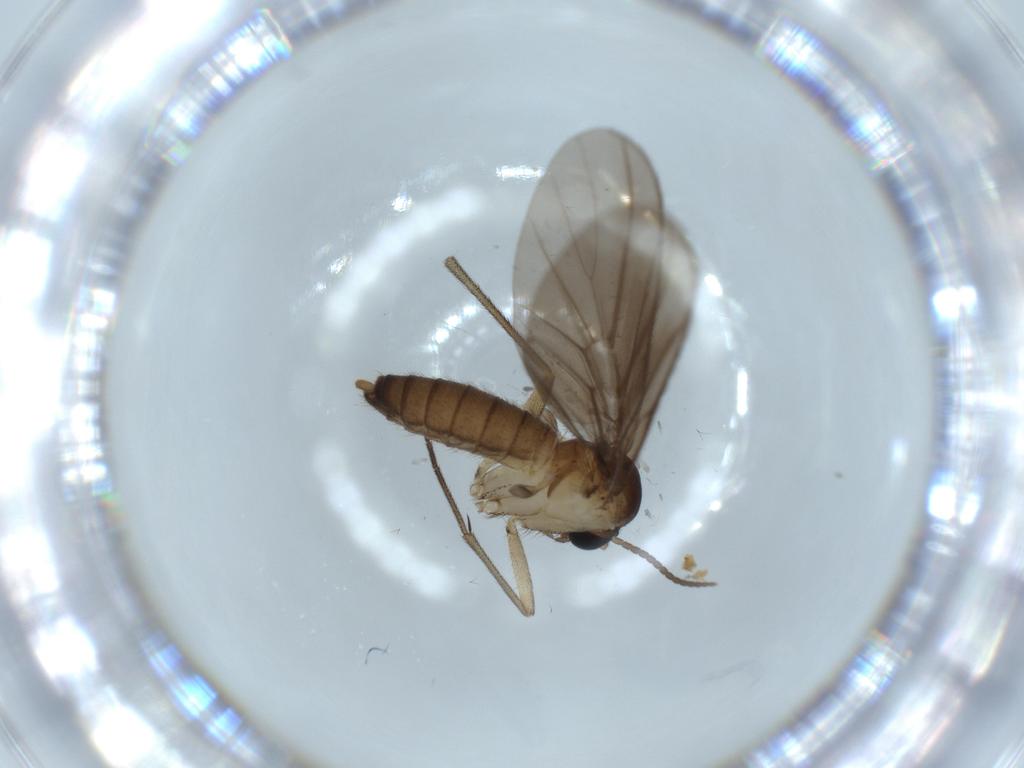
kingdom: Animalia
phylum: Arthropoda
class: Insecta
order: Diptera
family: Diadocidiidae
